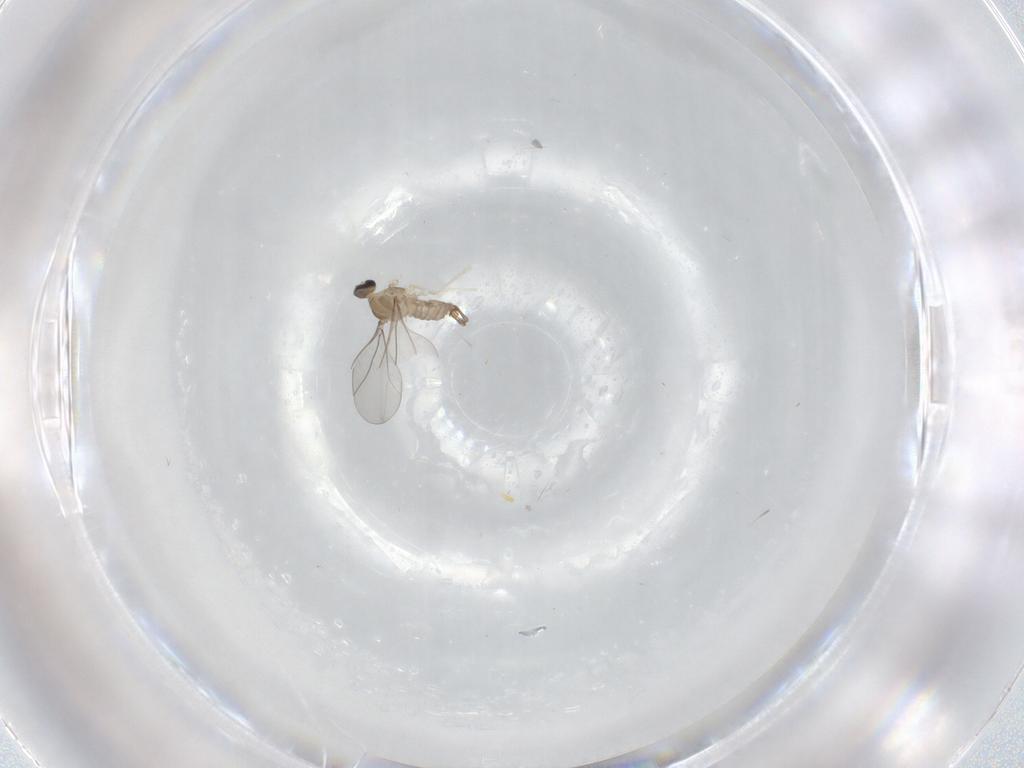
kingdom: Animalia
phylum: Arthropoda
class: Insecta
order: Diptera
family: Cecidomyiidae
